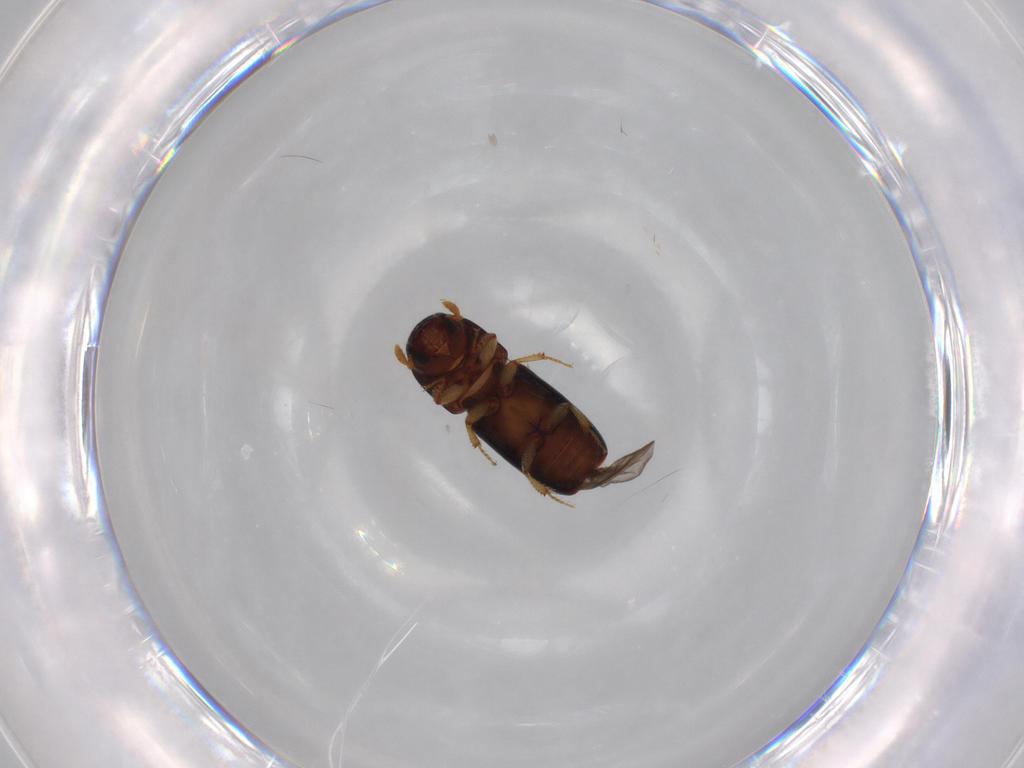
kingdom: Animalia
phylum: Arthropoda
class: Insecta
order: Coleoptera
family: Curculionidae
